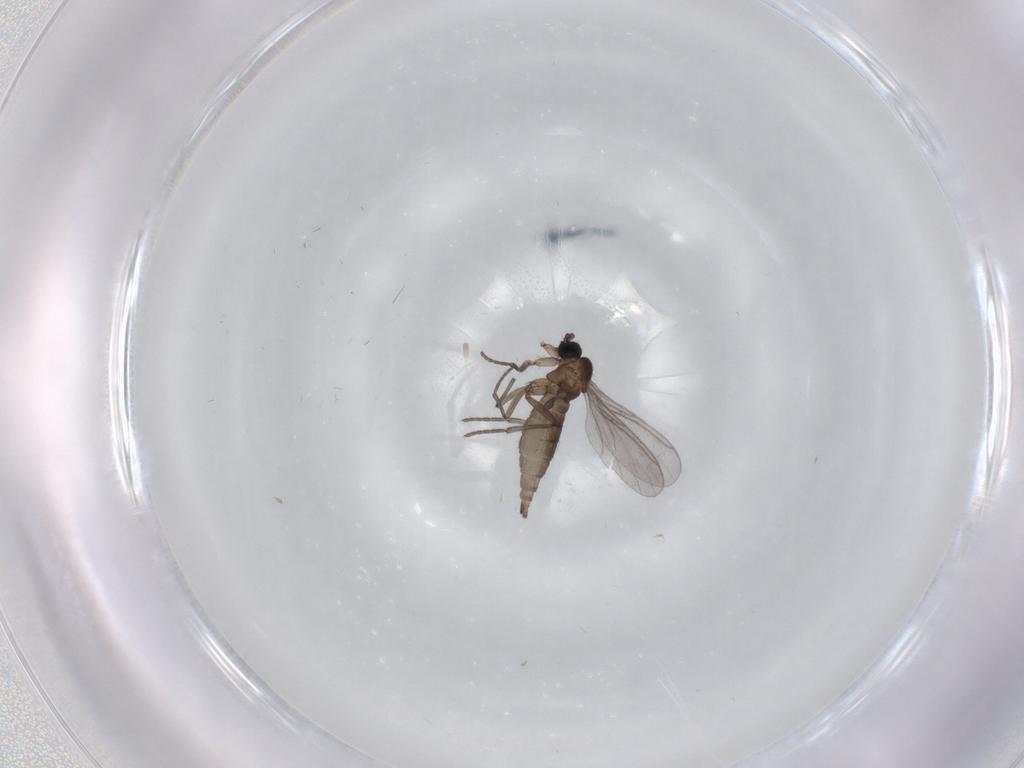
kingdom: Animalia
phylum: Arthropoda
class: Insecta
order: Diptera
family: Sciaridae
